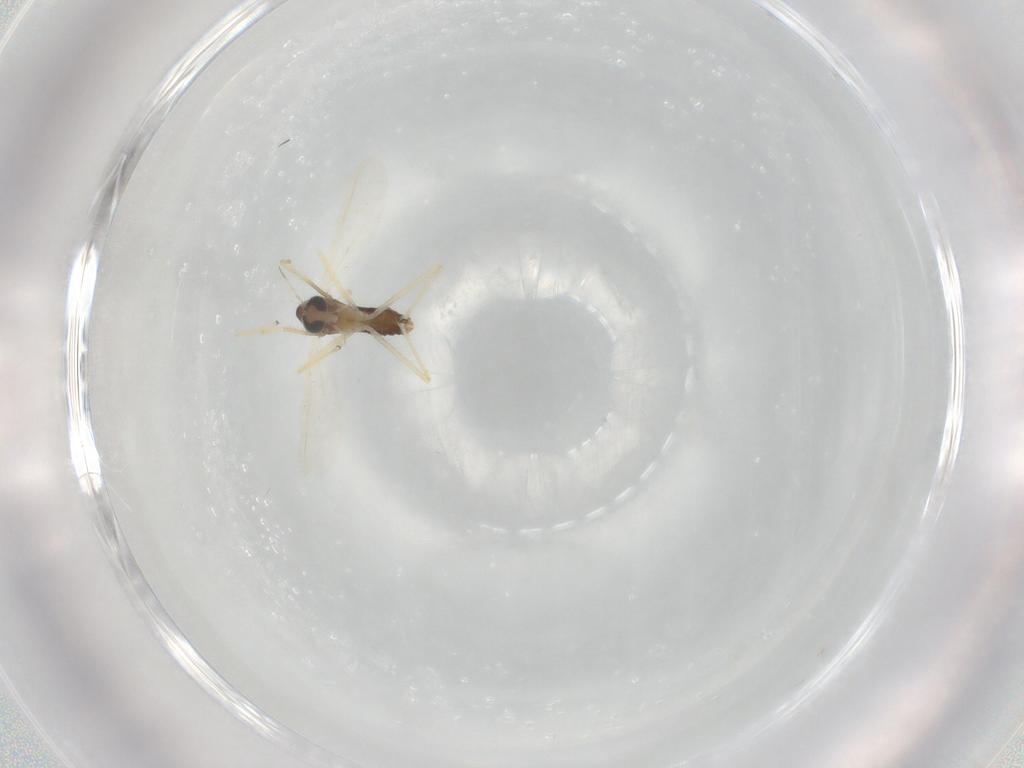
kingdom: Animalia
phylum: Arthropoda
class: Insecta
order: Diptera
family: Chironomidae
